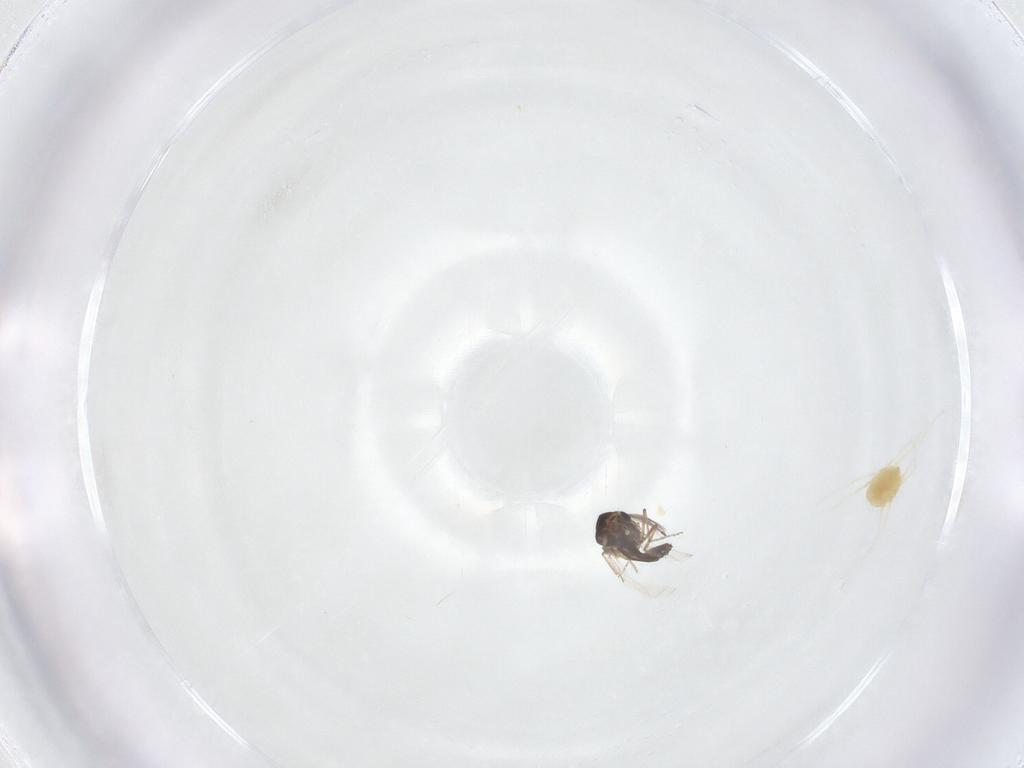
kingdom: Animalia
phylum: Arthropoda
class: Insecta
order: Diptera
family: Ceratopogonidae
